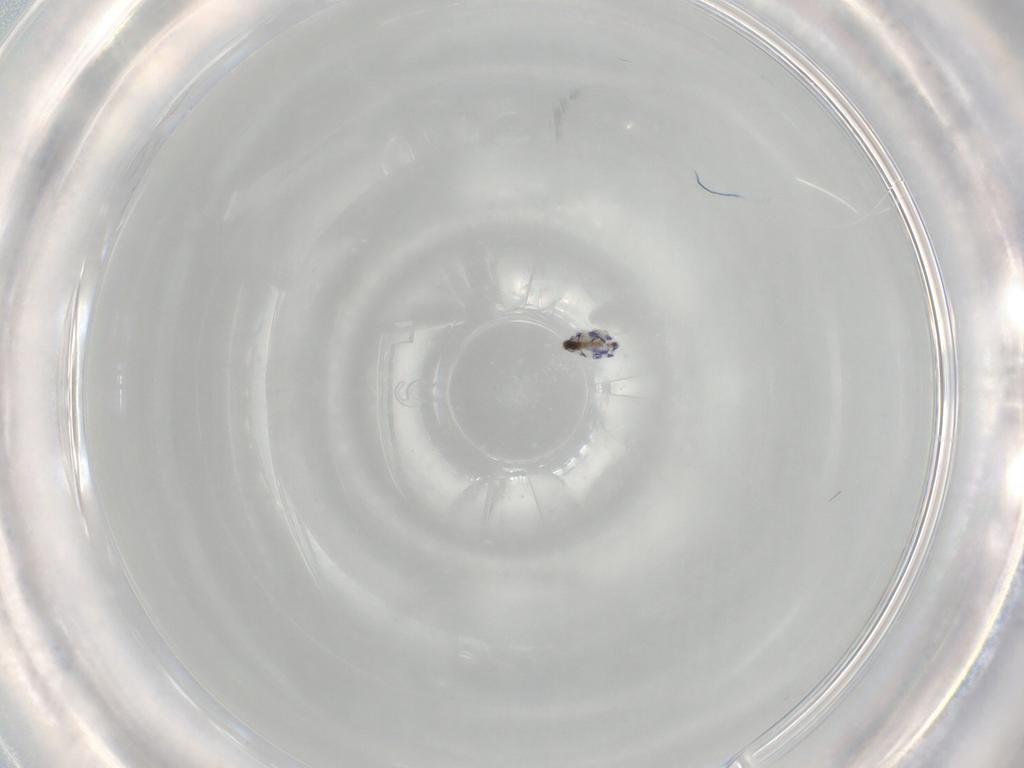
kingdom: Animalia
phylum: Arthropoda
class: Collembola
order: Entomobryomorpha
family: Entomobryidae
